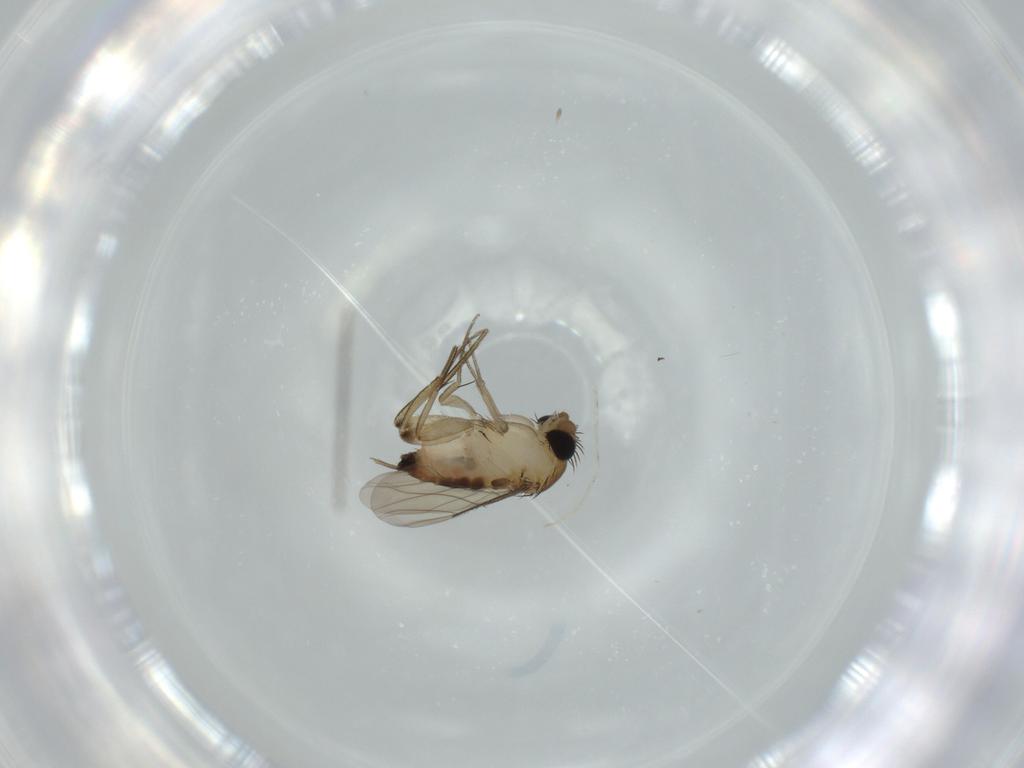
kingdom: Animalia
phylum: Arthropoda
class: Insecta
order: Diptera
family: Phoridae
